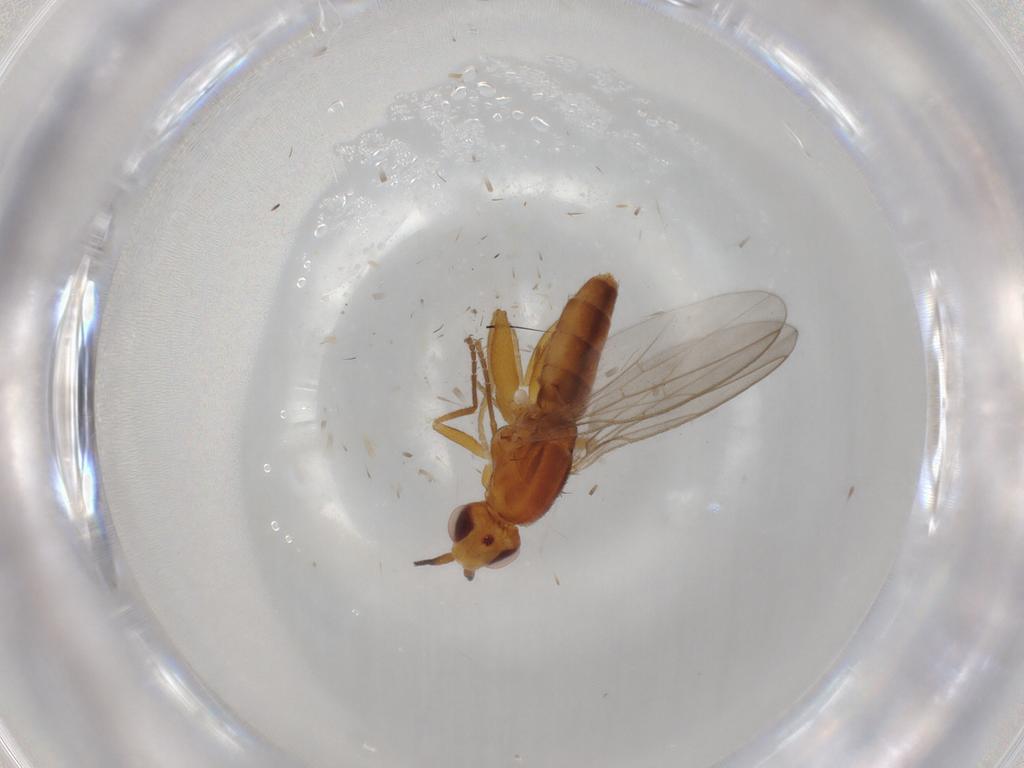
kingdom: Animalia
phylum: Arthropoda
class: Insecta
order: Diptera
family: Chloropidae
